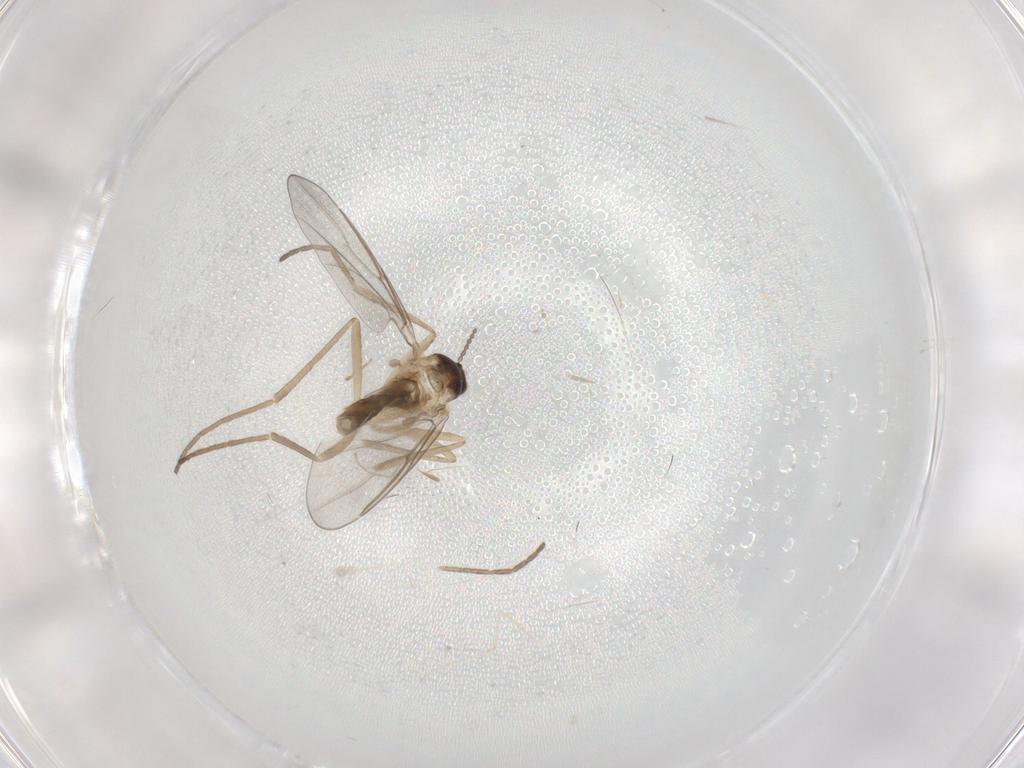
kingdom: Animalia
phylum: Arthropoda
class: Insecta
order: Diptera
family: Cecidomyiidae
